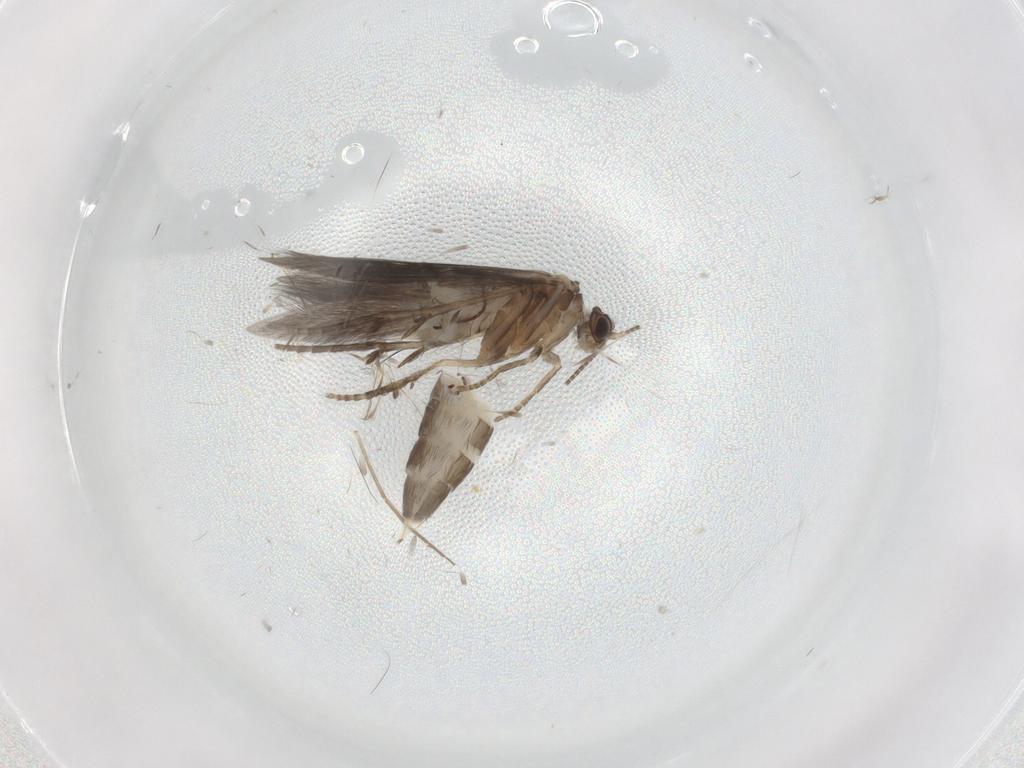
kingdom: Animalia
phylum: Arthropoda
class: Insecta
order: Trichoptera
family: Hydroptilidae
